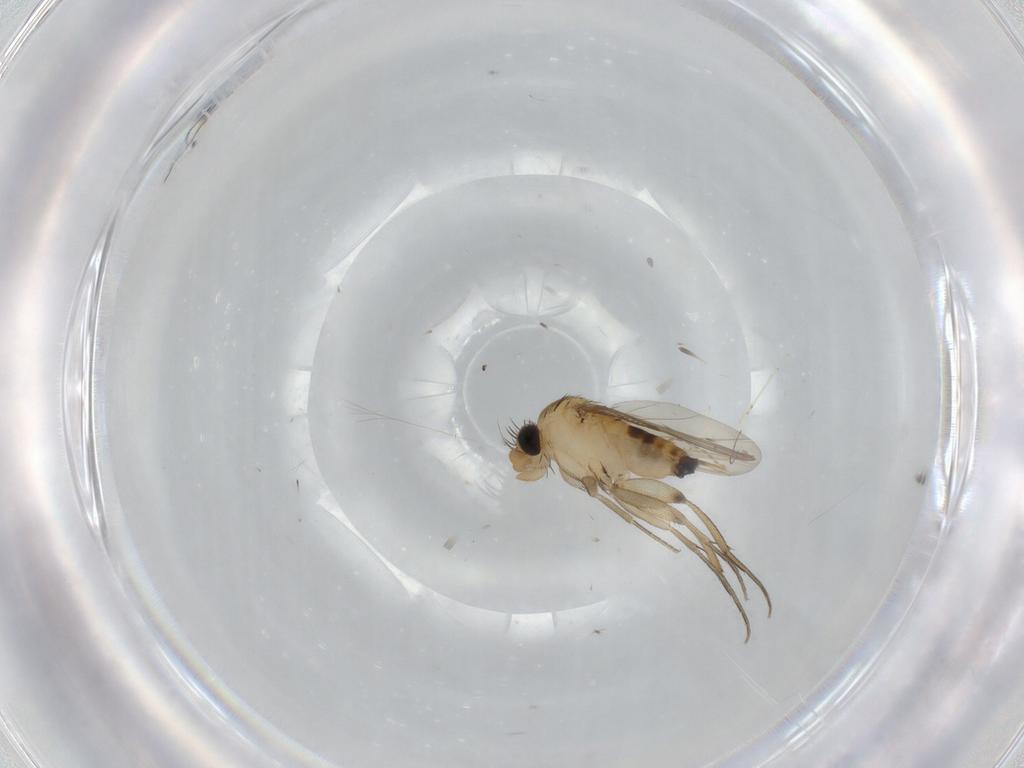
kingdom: Animalia
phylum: Arthropoda
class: Insecta
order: Diptera
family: Phoridae
